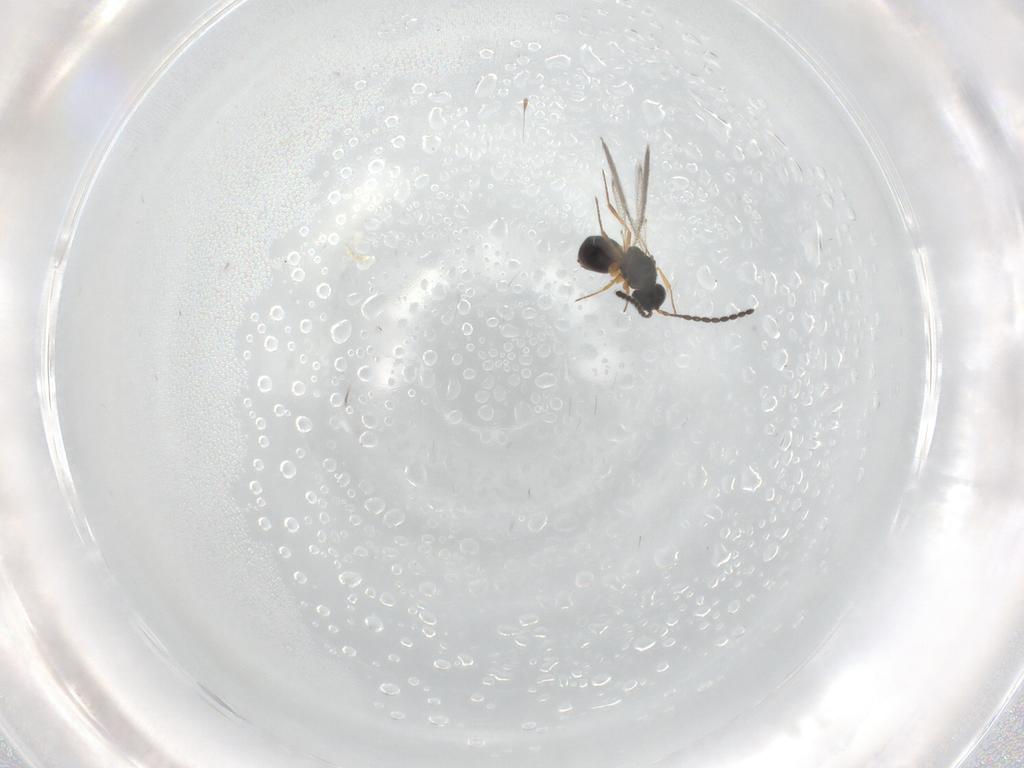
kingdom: Animalia
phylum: Arthropoda
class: Insecta
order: Hymenoptera
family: Figitidae
